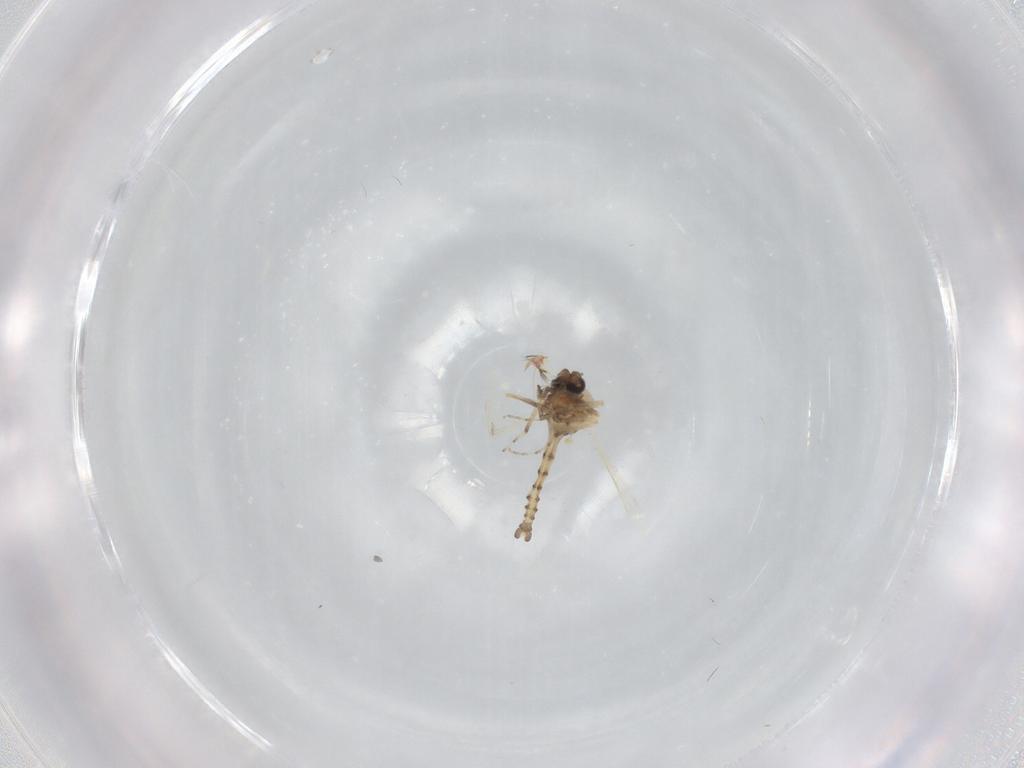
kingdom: Animalia
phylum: Arthropoda
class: Insecta
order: Diptera
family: Sciaridae
